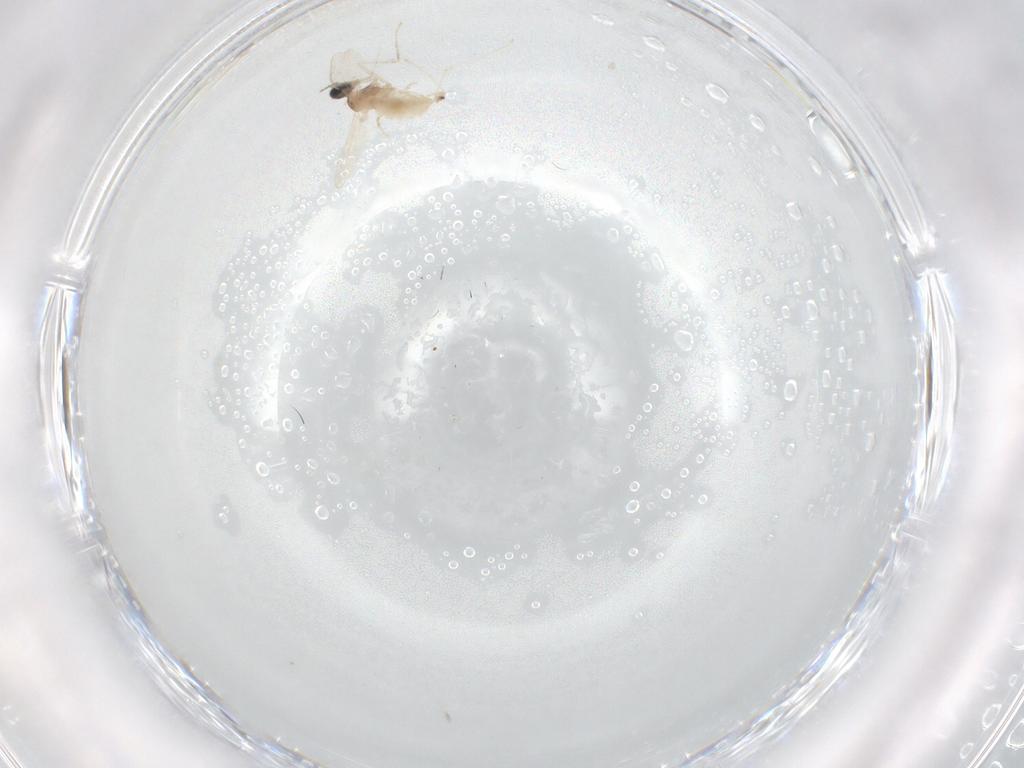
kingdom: Animalia
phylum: Arthropoda
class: Insecta
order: Diptera
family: Cecidomyiidae
